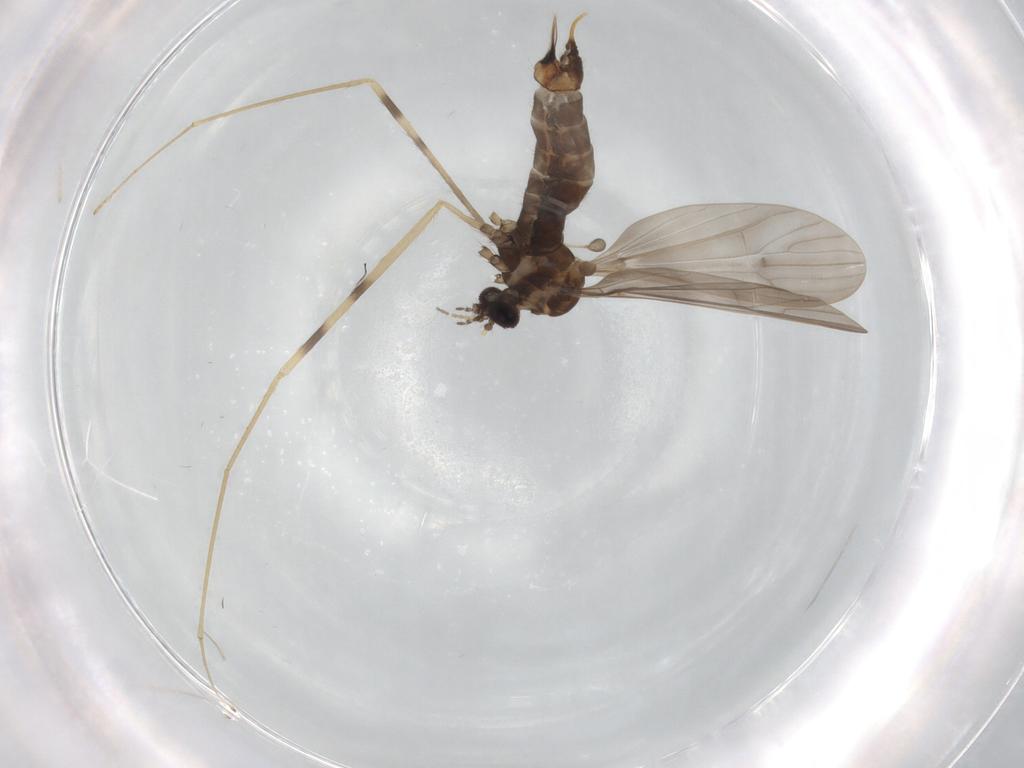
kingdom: Animalia
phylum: Arthropoda
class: Insecta
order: Diptera
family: Limoniidae
